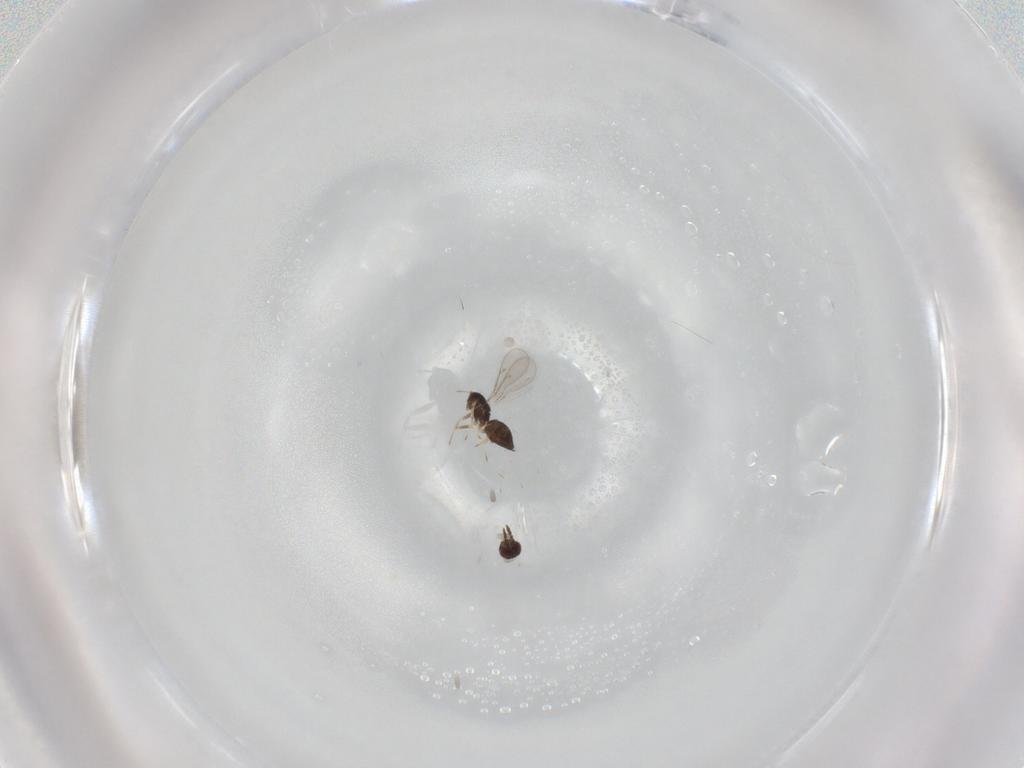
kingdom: Animalia
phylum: Arthropoda
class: Insecta
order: Hymenoptera
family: Eulophidae
